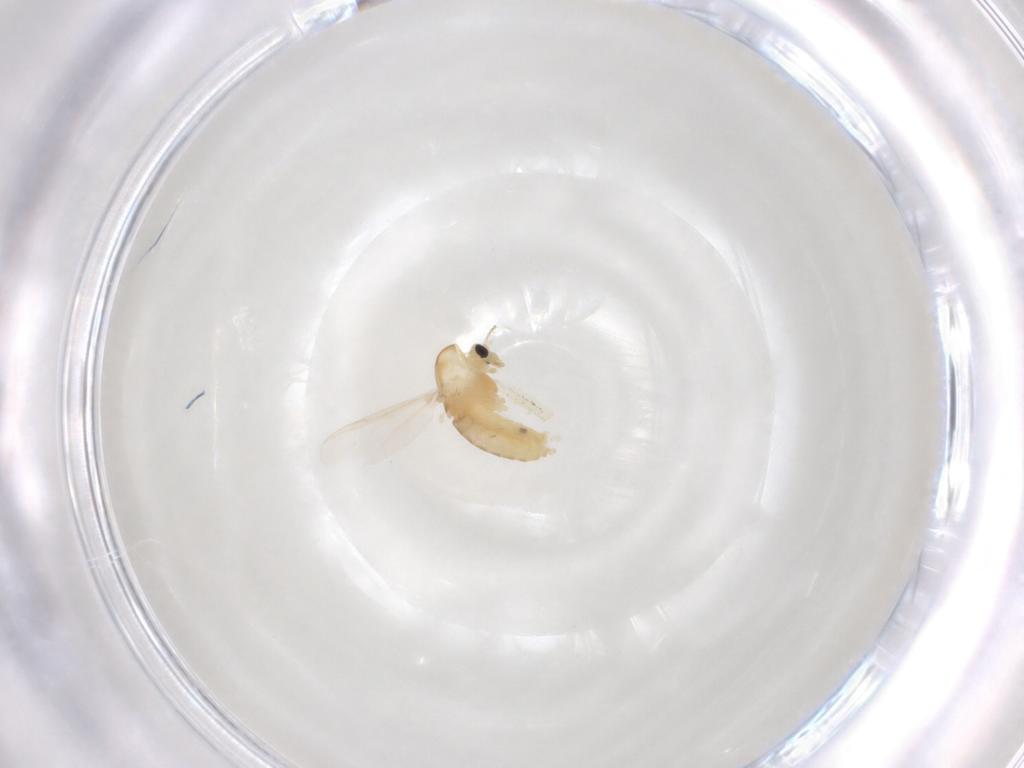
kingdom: Animalia
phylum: Arthropoda
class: Insecta
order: Diptera
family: Chironomidae
